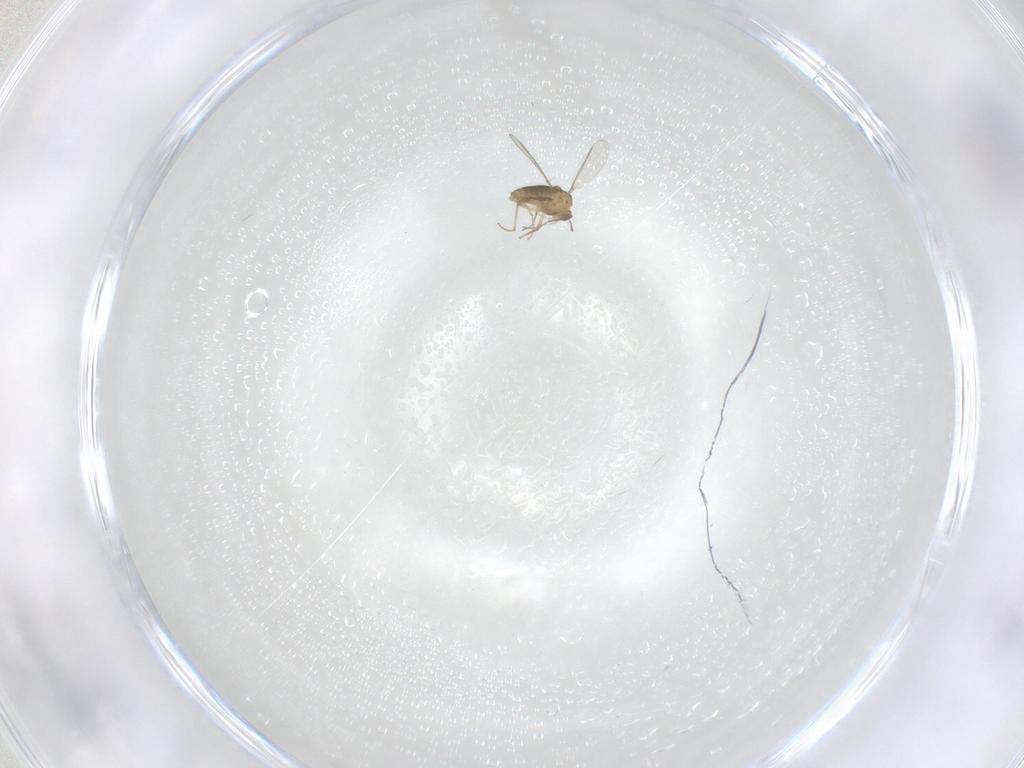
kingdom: Animalia
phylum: Arthropoda
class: Insecta
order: Diptera
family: Chironomidae
